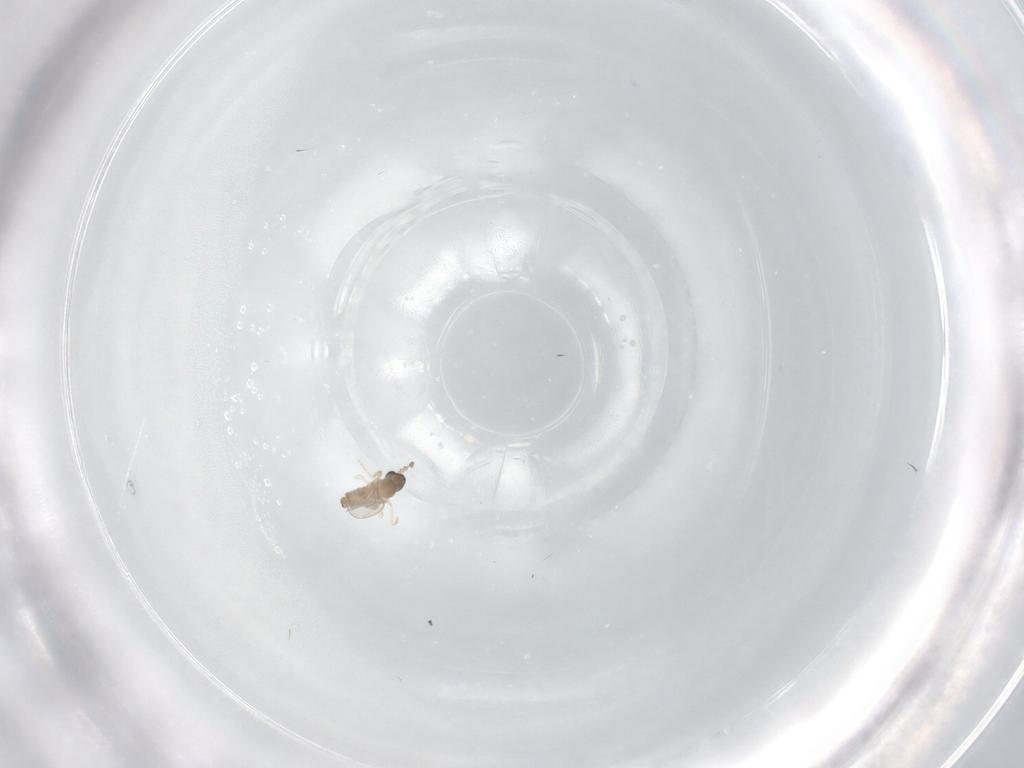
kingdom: Animalia
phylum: Arthropoda
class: Insecta
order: Diptera
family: Cecidomyiidae
